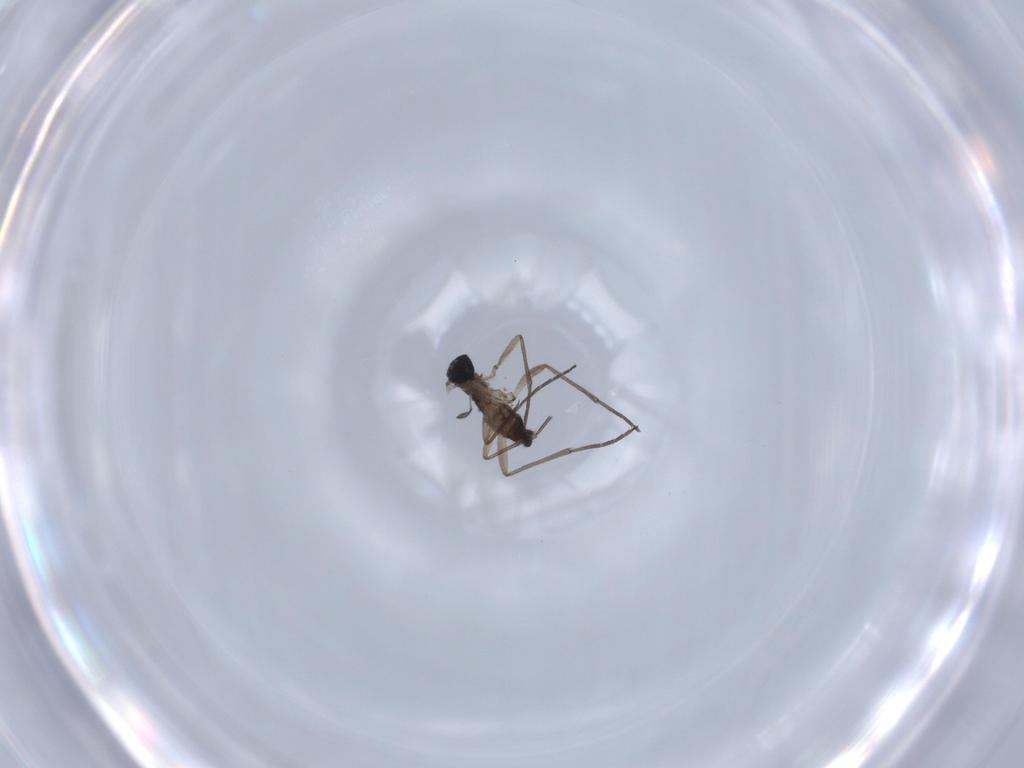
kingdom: Animalia
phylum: Arthropoda
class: Insecta
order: Diptera
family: Sciaridae
